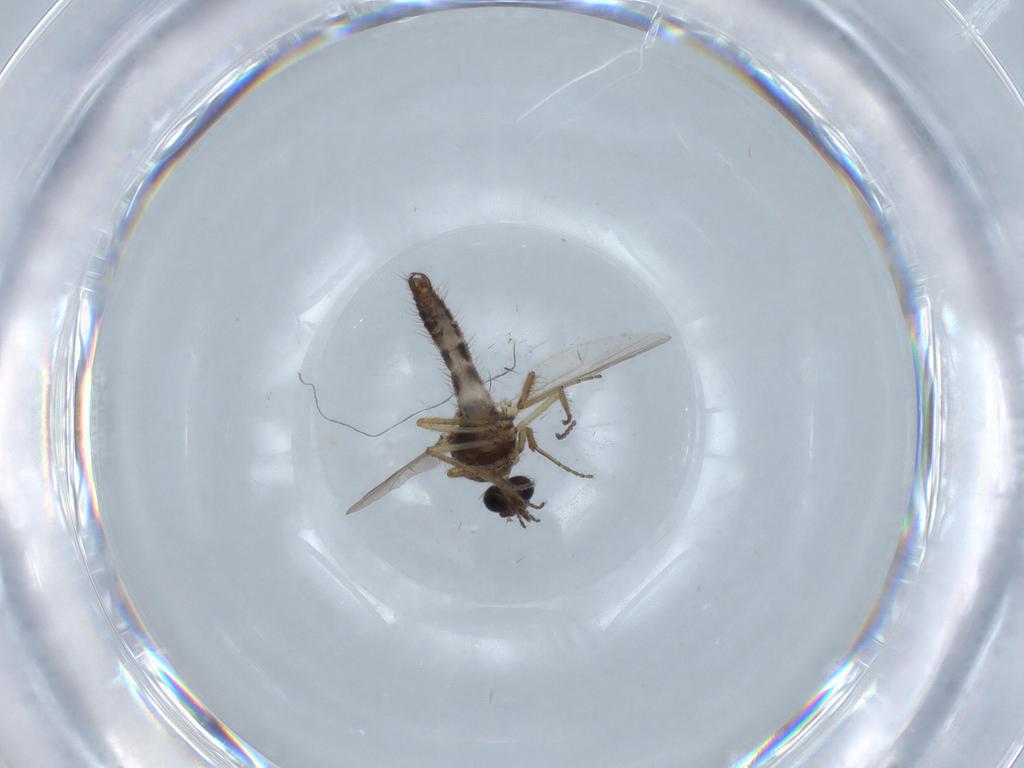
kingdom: Animalia
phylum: Arthropoda
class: Insecta
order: Diptera
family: Ceratopogonidae
